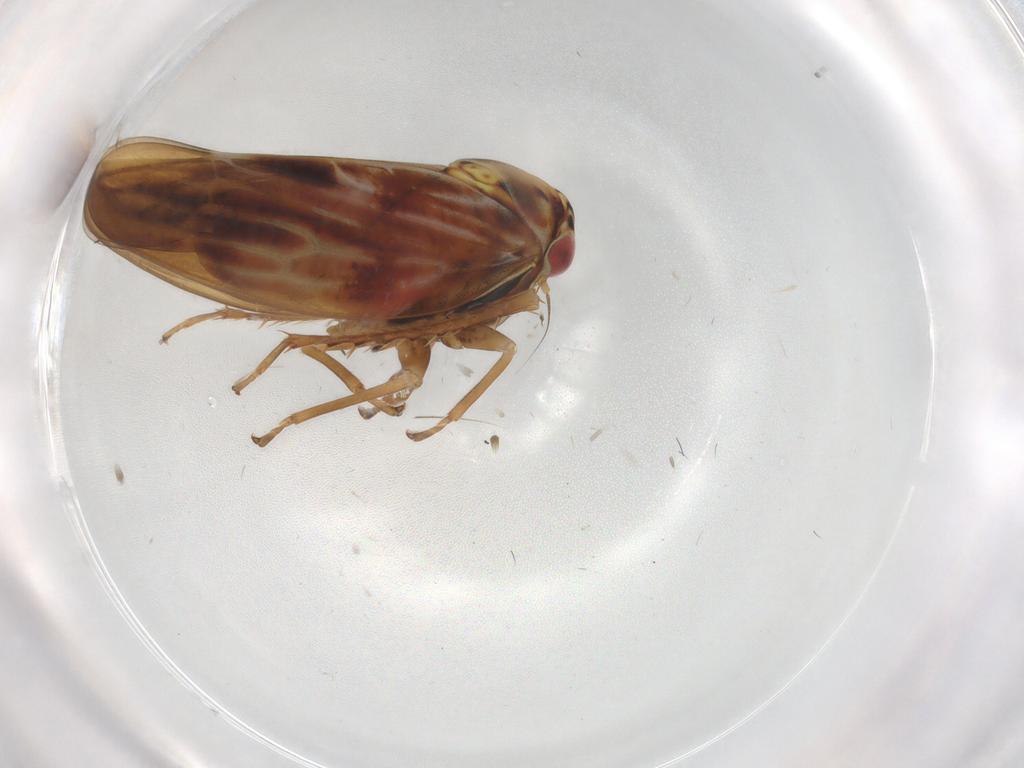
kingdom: Animalia
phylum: Arthropoda
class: Insecta
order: Hemiptera
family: Cicadellidae
